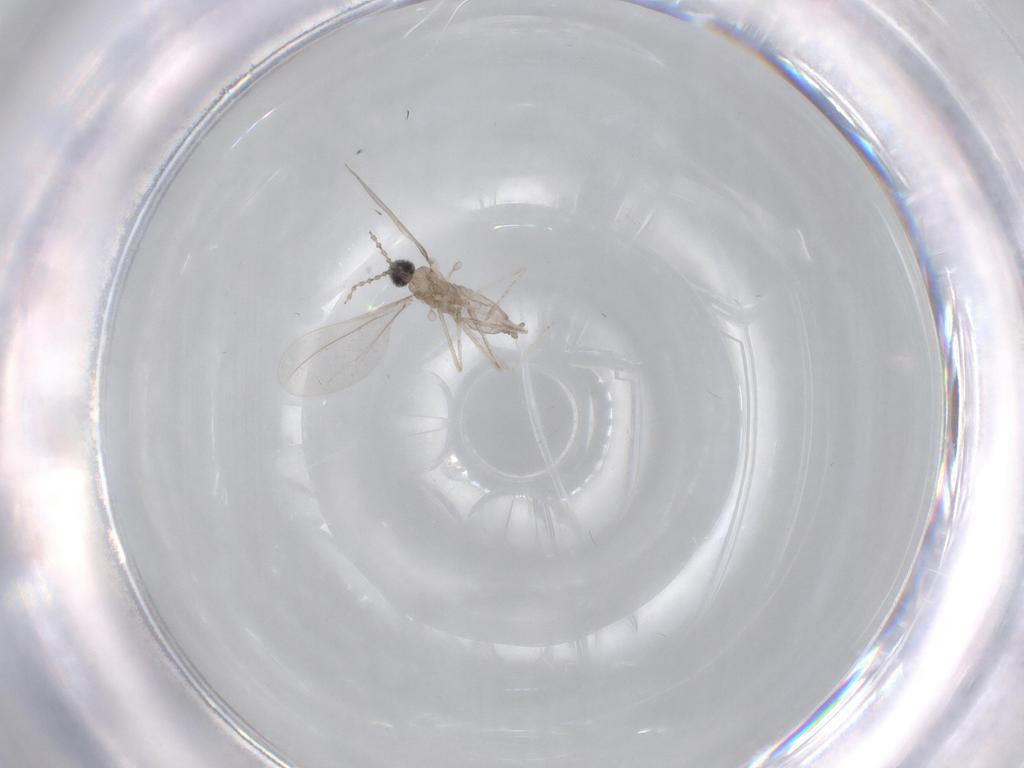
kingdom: Animalia
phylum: Arthropoda
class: Insecta
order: Diptera
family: Cecidomyiidae
